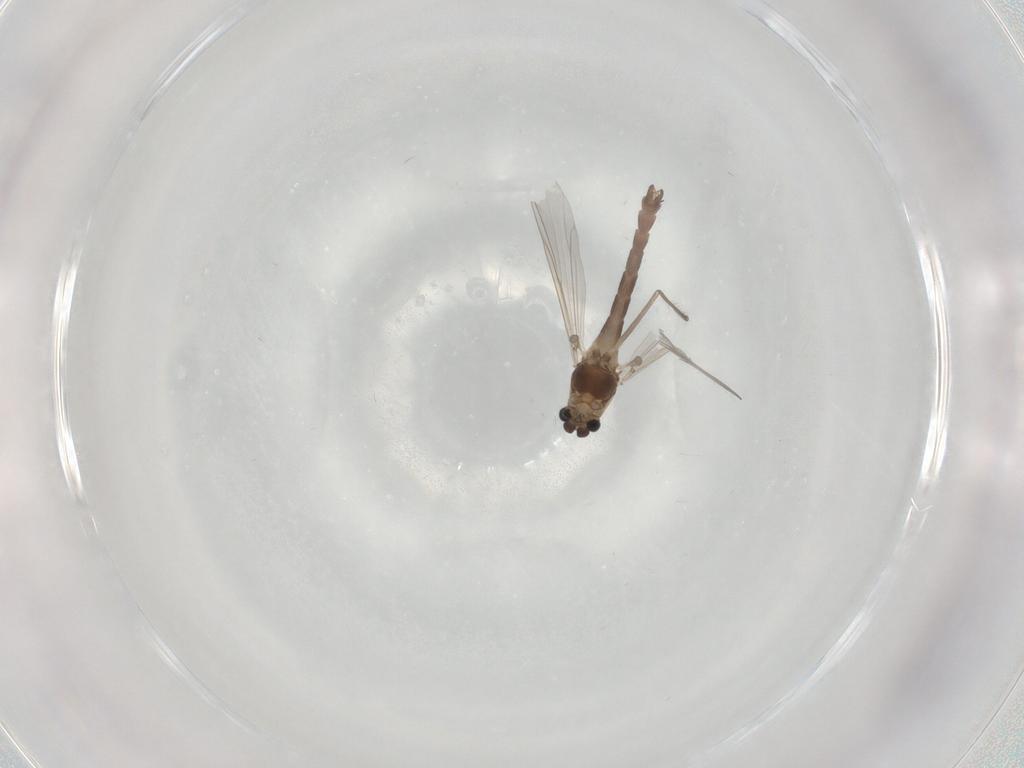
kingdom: Animalia
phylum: Arthropoda
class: Insecta
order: Diptera
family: Chironomidae
